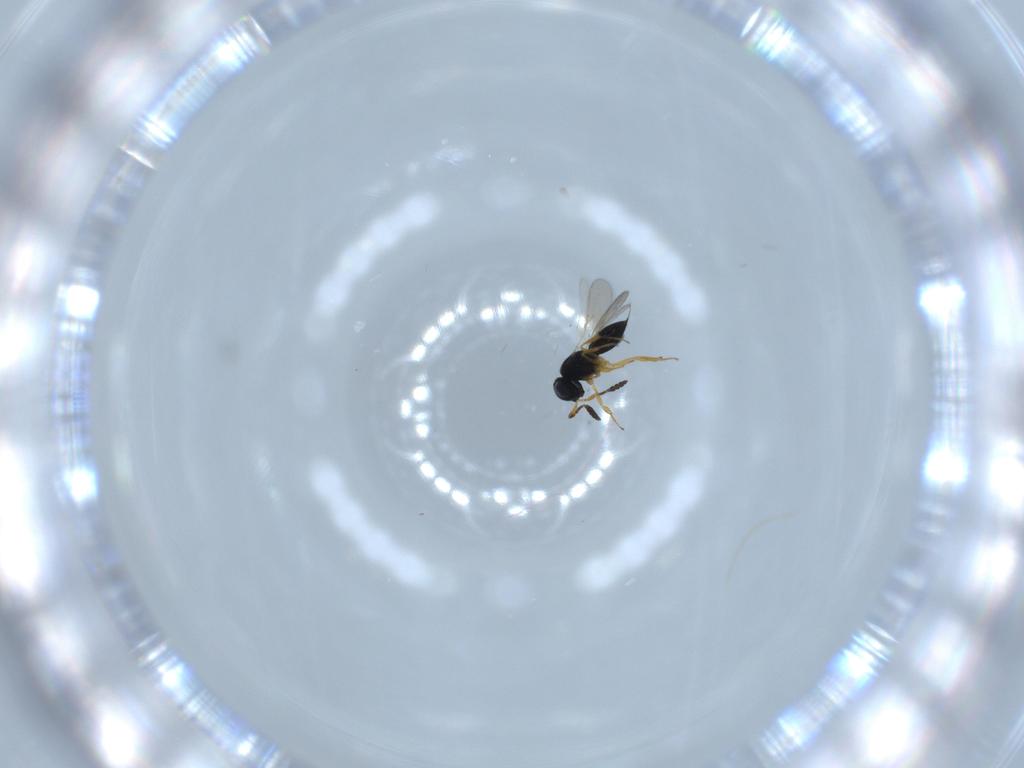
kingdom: Animalia
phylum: Arthropoda
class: Insecta
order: Hymenoptera
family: Scelionidae
